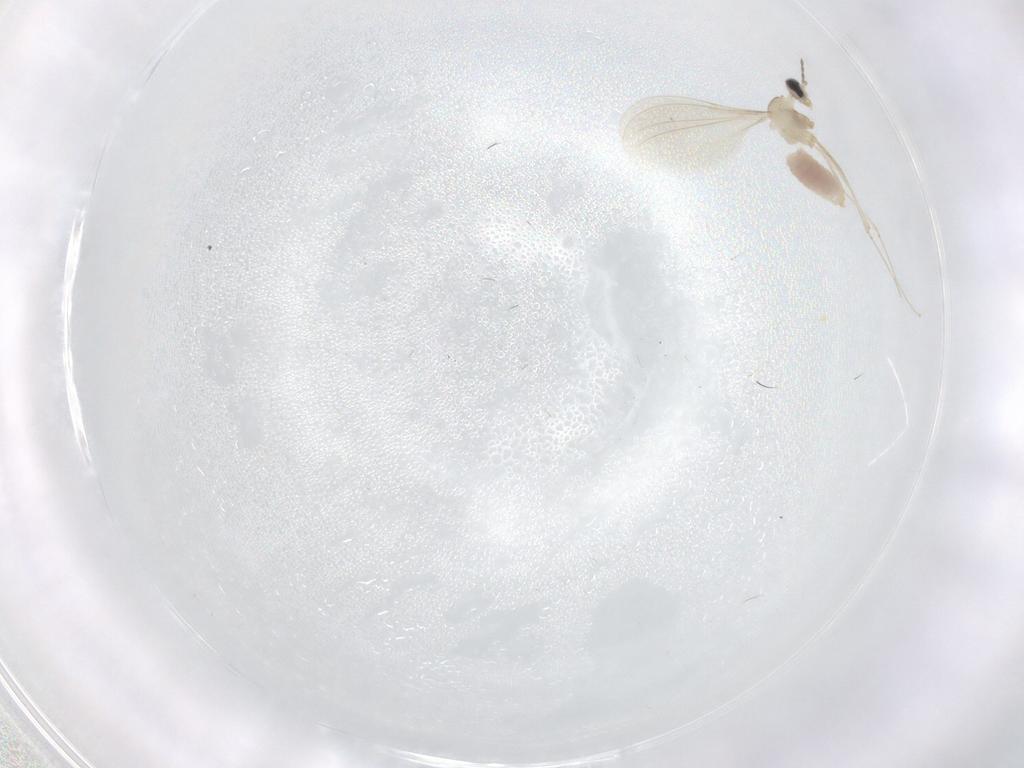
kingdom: Animalia
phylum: Arthropoda
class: Insecta
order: Diptera
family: Cecidomyiidae
